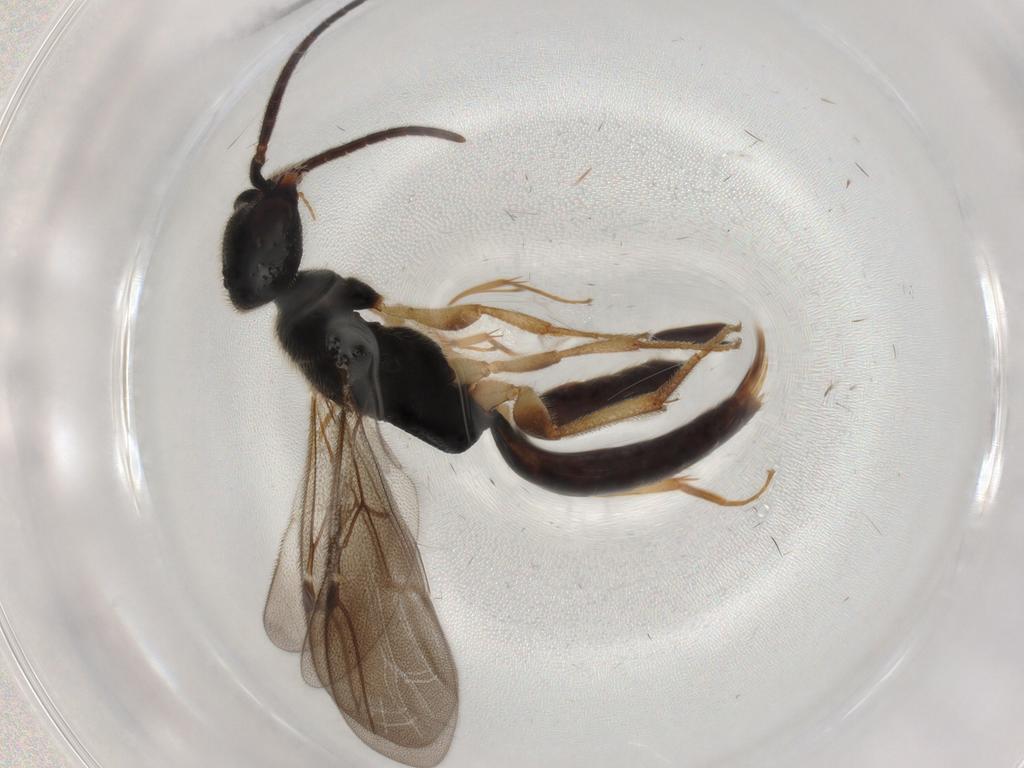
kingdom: Animalia
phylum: Arthropoda
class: Insecta
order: Hymenoptera
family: Bethylidae
